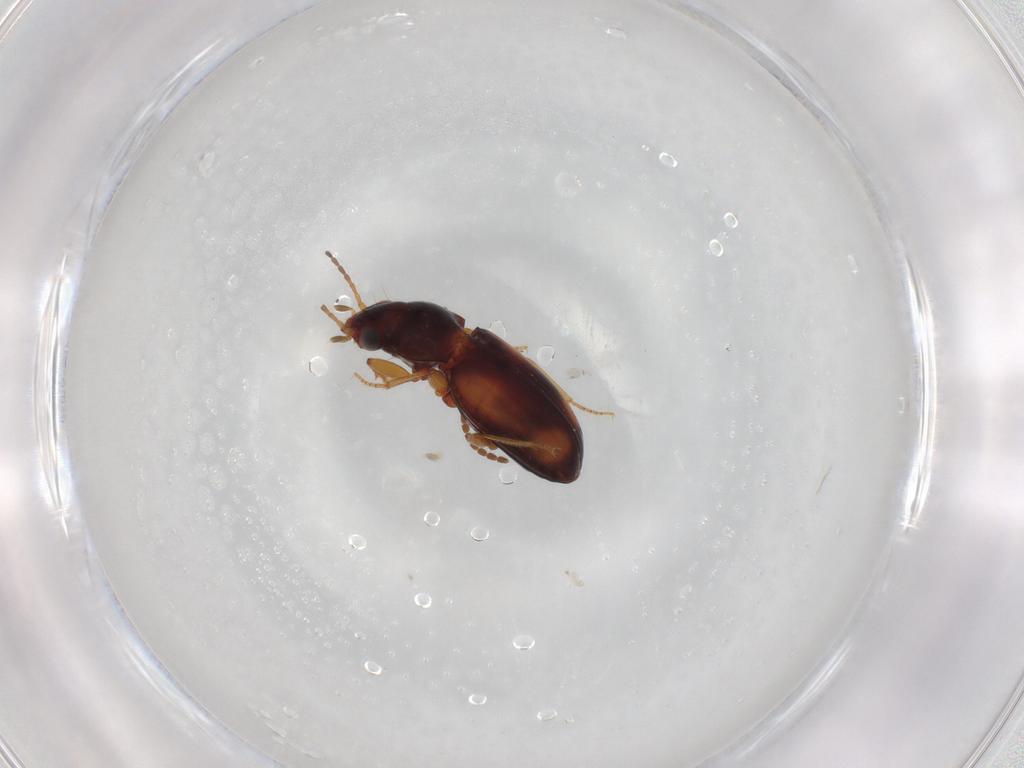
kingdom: Animalia
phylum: Arthropoda
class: Insecta
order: Coleoptera
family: Carabidae
